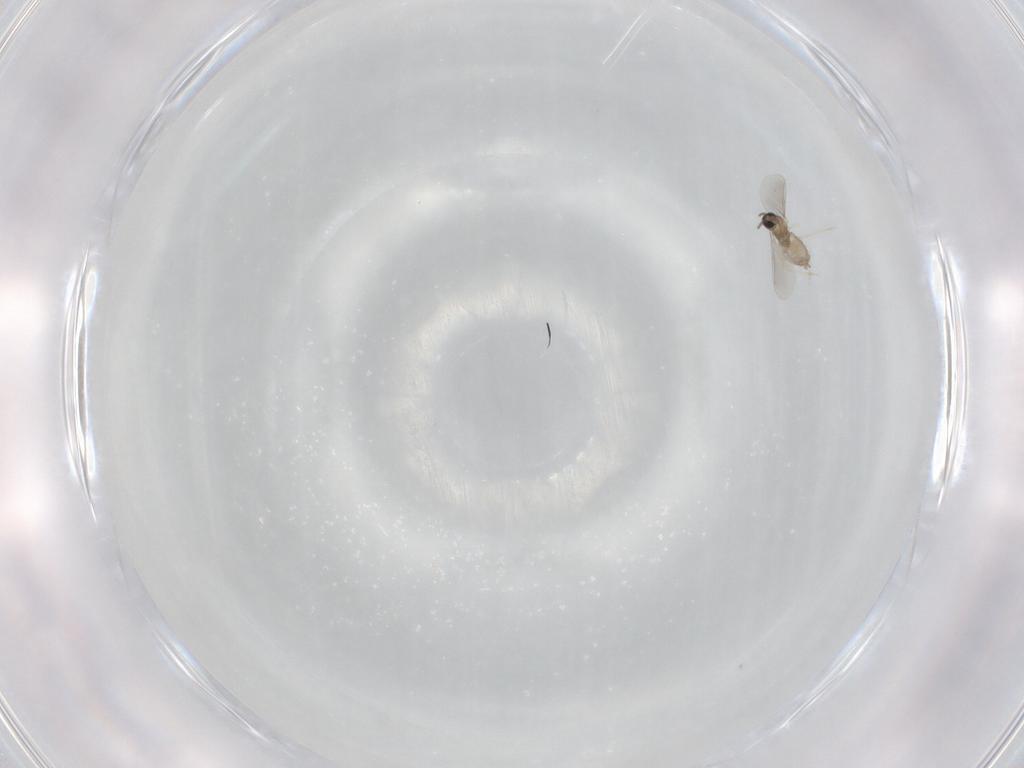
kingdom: Animalia
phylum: Arthropoda
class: Insecta
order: Diptera
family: Cecidomyiidae
